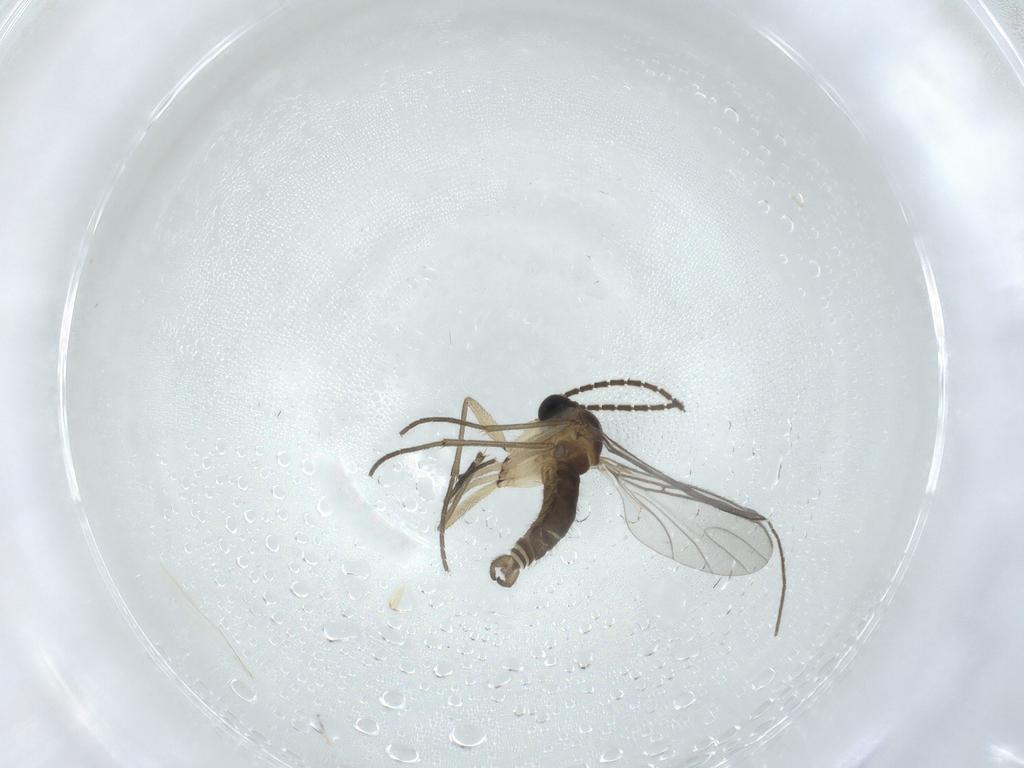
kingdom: Animalia
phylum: Arthropoda
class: Insecta
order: Diptera
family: Sciaridae
